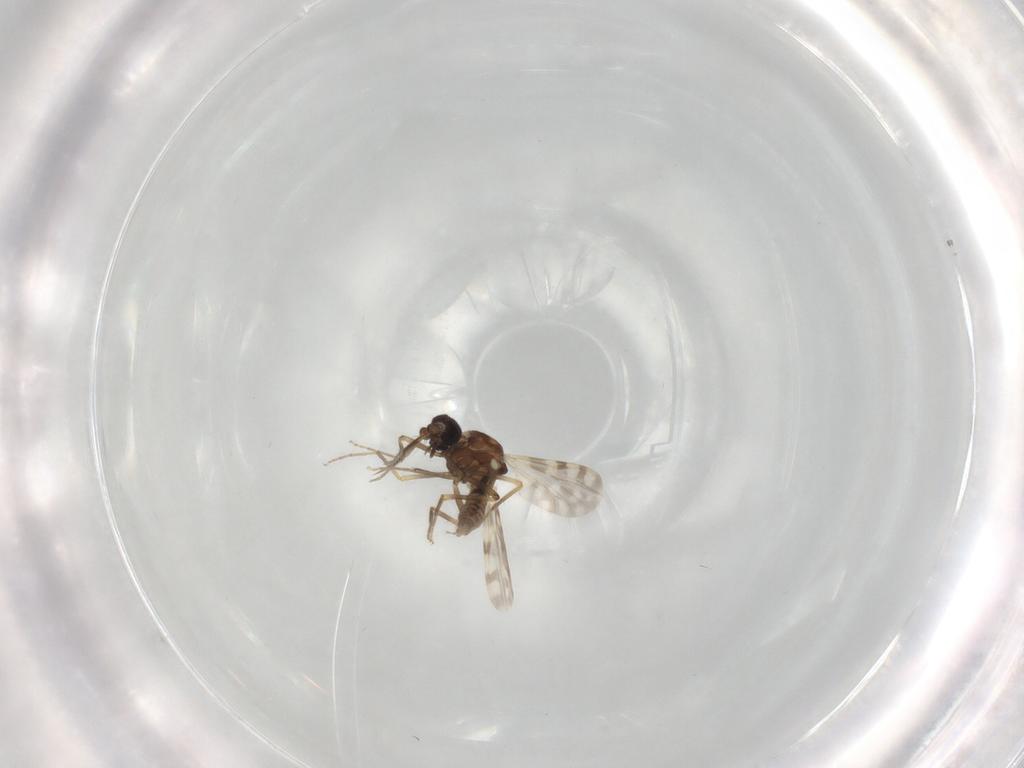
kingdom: Animalia
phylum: Arthropoda
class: Insecta
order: Diptera
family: Ceratopogonidae
